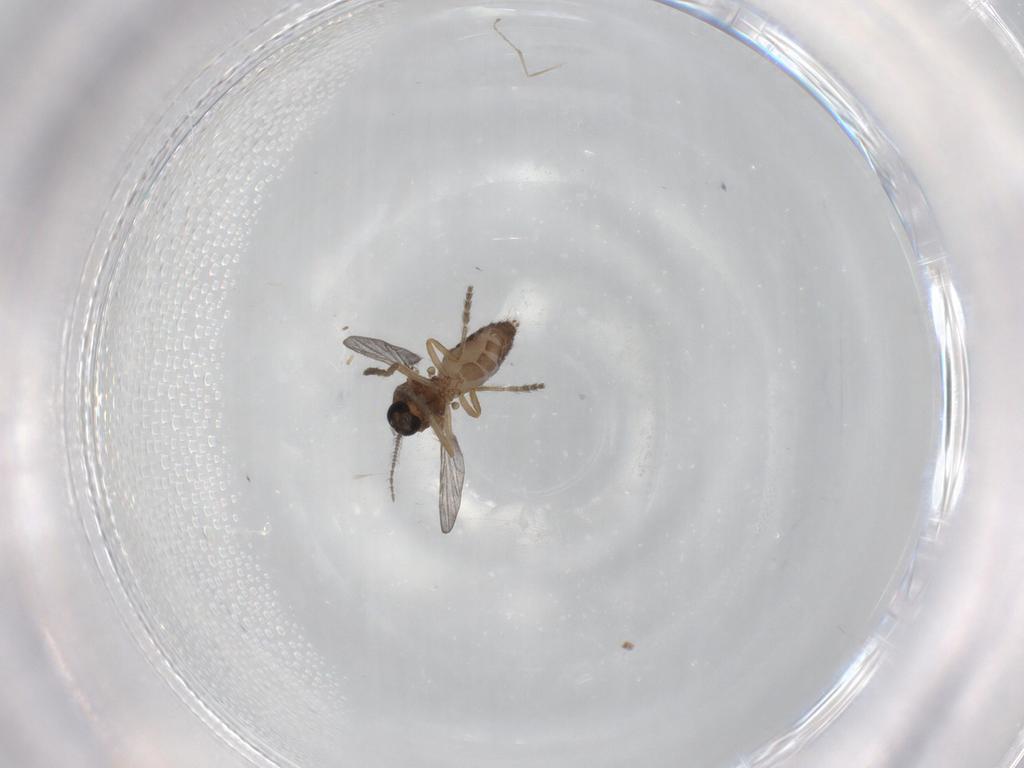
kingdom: Animalia
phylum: Arthropoda
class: Insecta
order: Diptera
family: Ceratopogonidae
